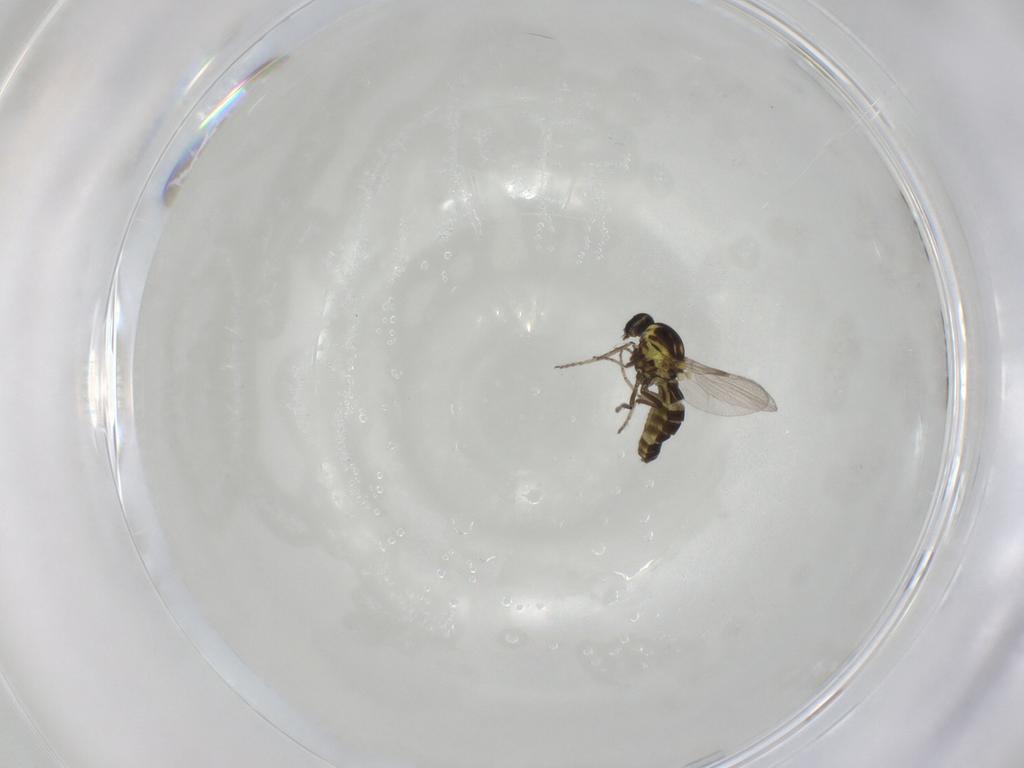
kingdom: Animalia
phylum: Arthropoda
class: Insecta
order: Diptera
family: Ceratopogonidae
